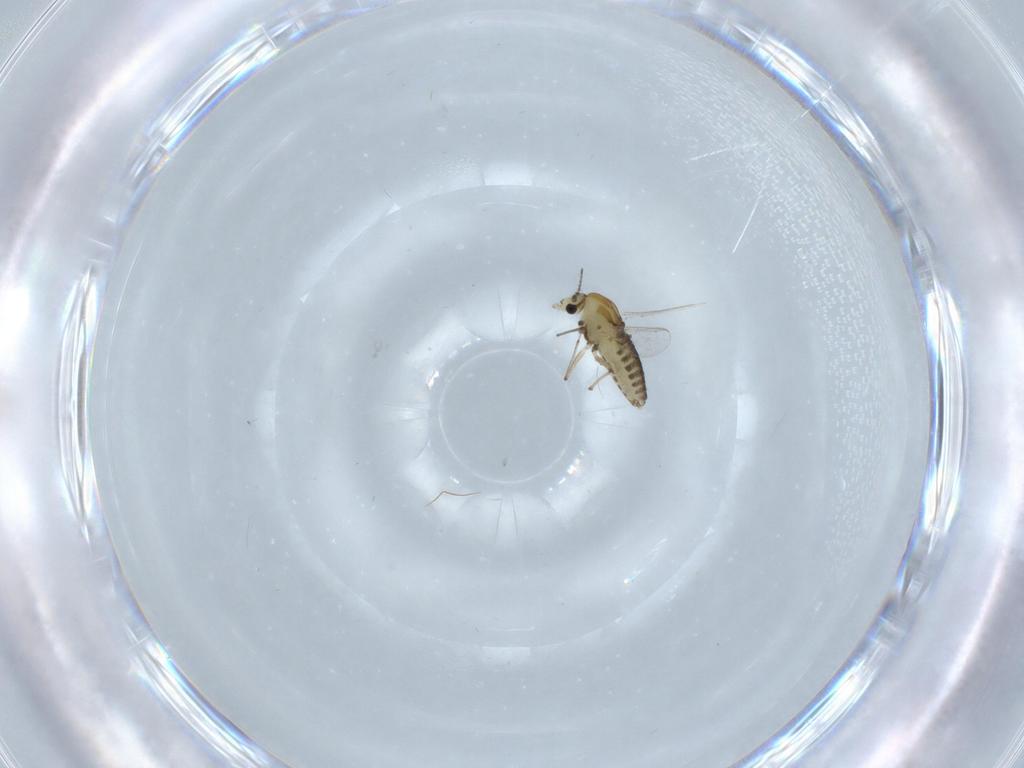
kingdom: Animalia
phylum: Arthropoda
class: Insecta
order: Diptera
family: Chironomidae
